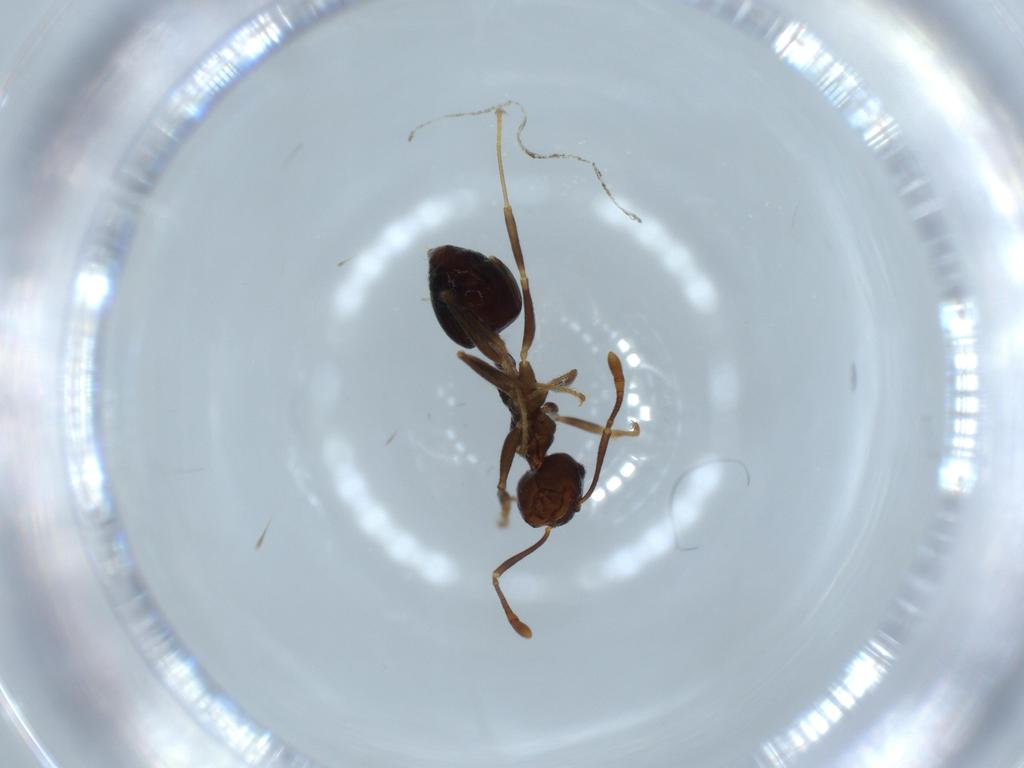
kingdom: Animalia
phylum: Arthropoda
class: Insecta
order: Hymenoptera
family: Formicidae
